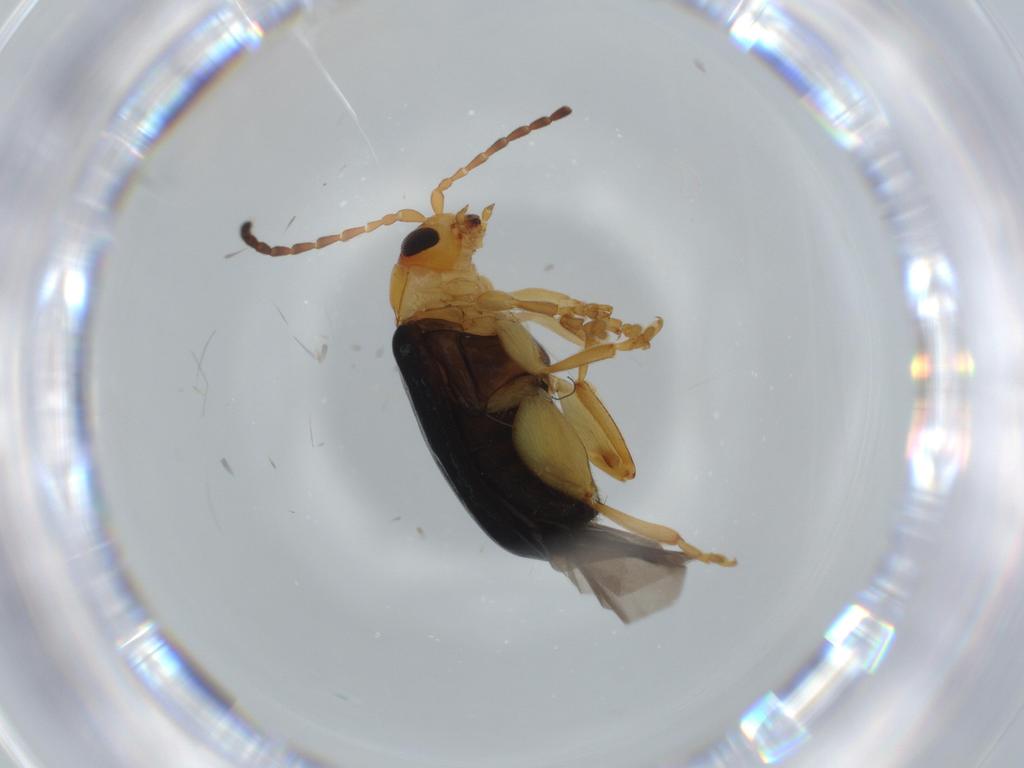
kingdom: Animalia
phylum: Arthropoda
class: Insecta
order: Coleoptera
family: Chrysomelidae
